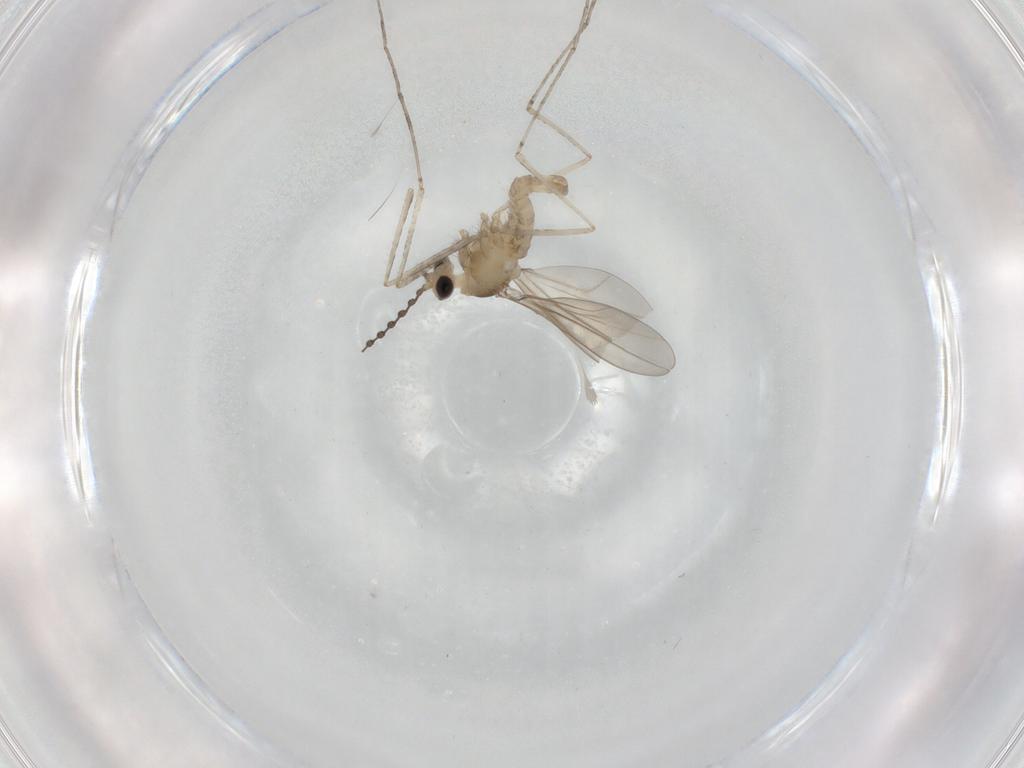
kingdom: Animalia
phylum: Arthropoda
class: Insecta
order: Diptera
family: Cecidomyiidae
